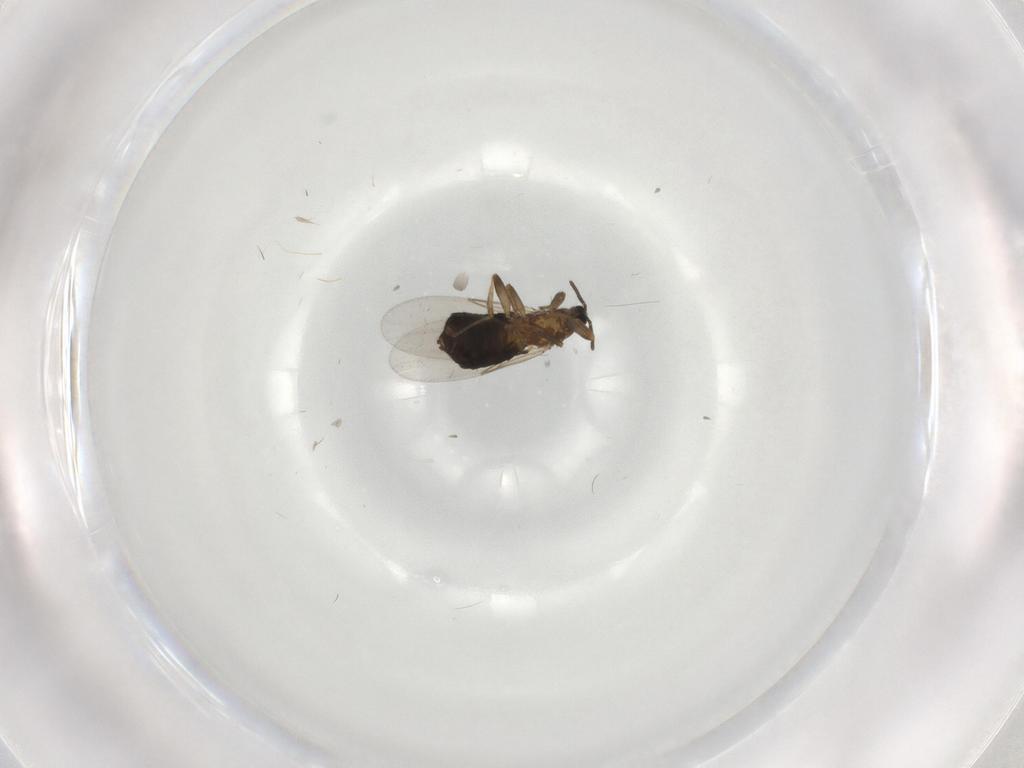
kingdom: Animalia
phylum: Arthropoda
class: Insecta
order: Diptera
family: Scatopsidae
